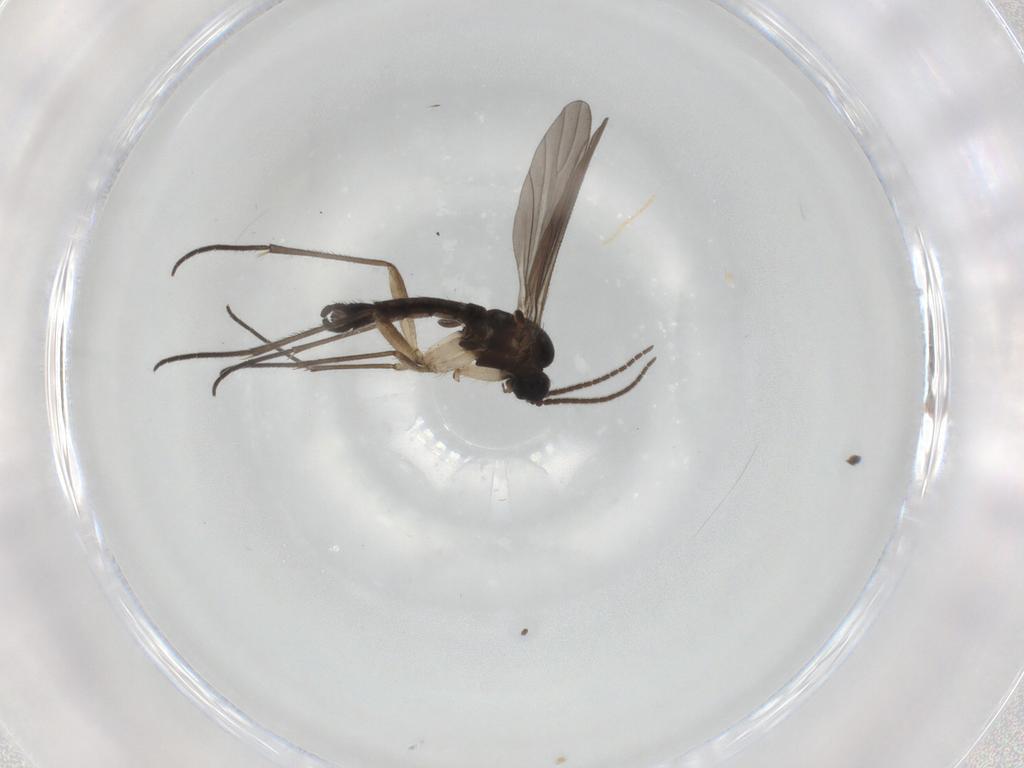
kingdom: Animalia
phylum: Arthropoda
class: Insecta
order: Diptera
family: Sciaridae
